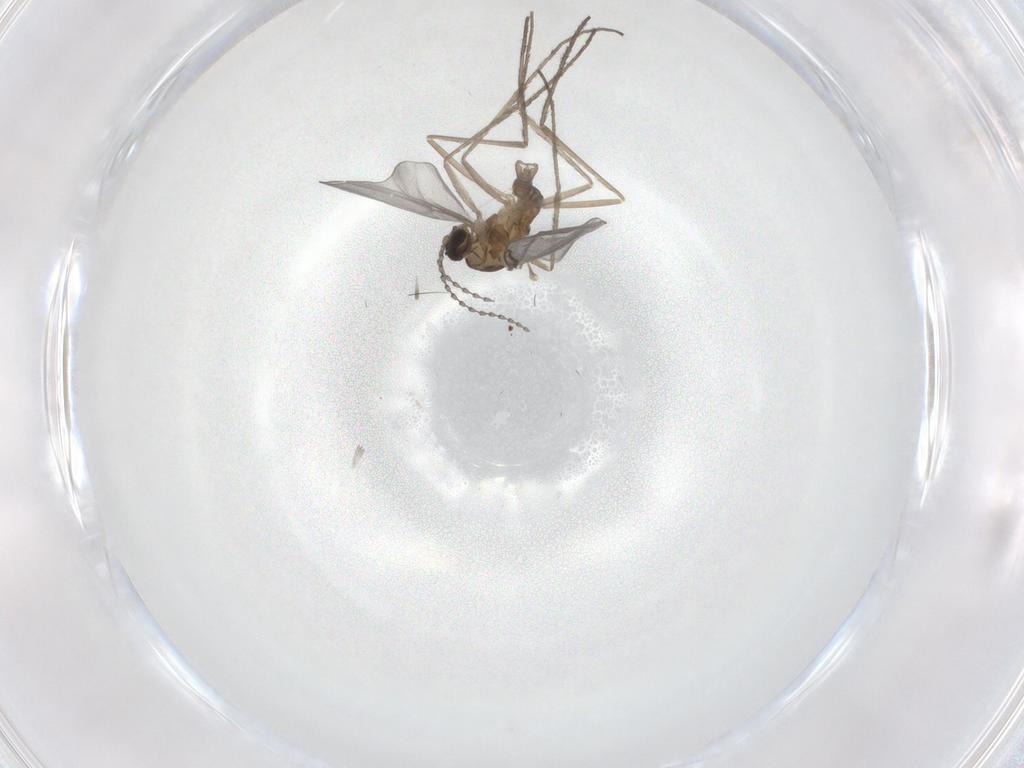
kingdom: Animalia
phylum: Arthropoda
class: Insecta
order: Diptera
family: Cecidomyiidae
